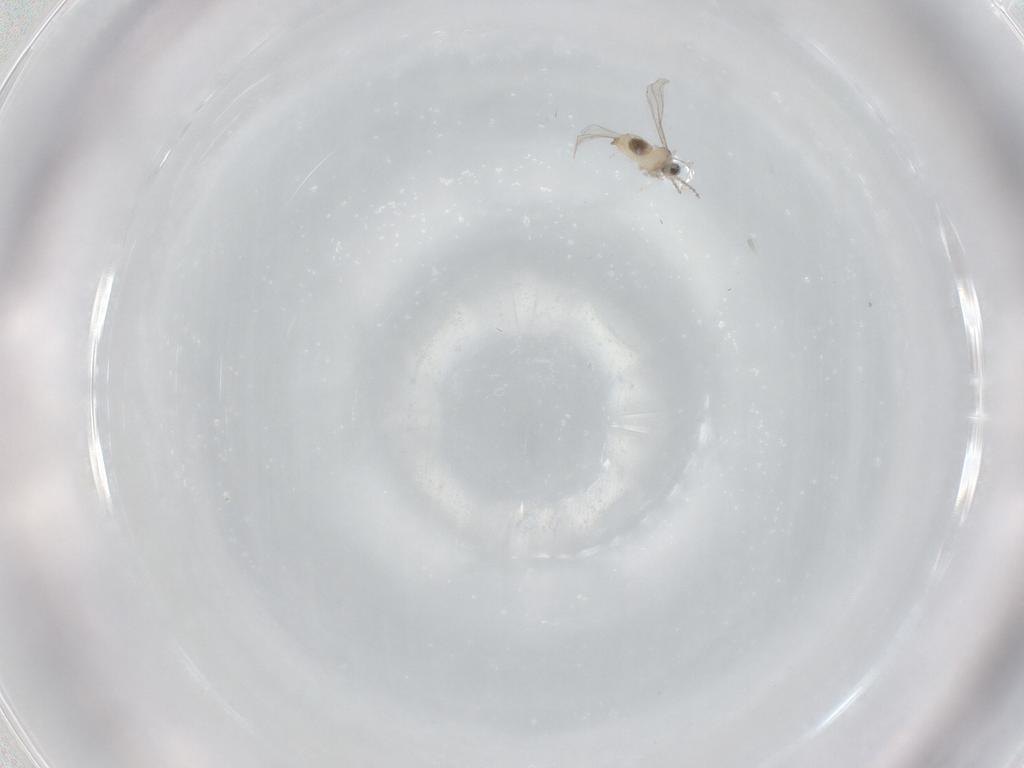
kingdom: Animalia
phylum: Arthropoda
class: Insecta
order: Diptera
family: Cecidomyiidae
